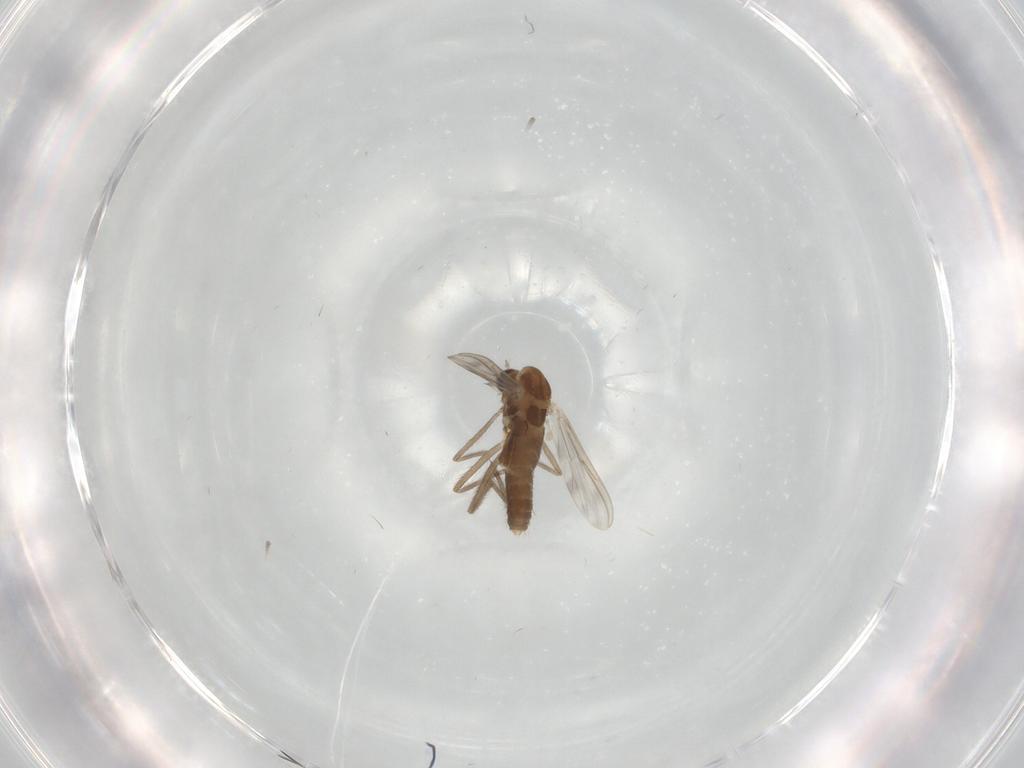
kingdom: Animalia
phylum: Arthropoda
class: Insecta
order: Diptera
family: Chironomidae
